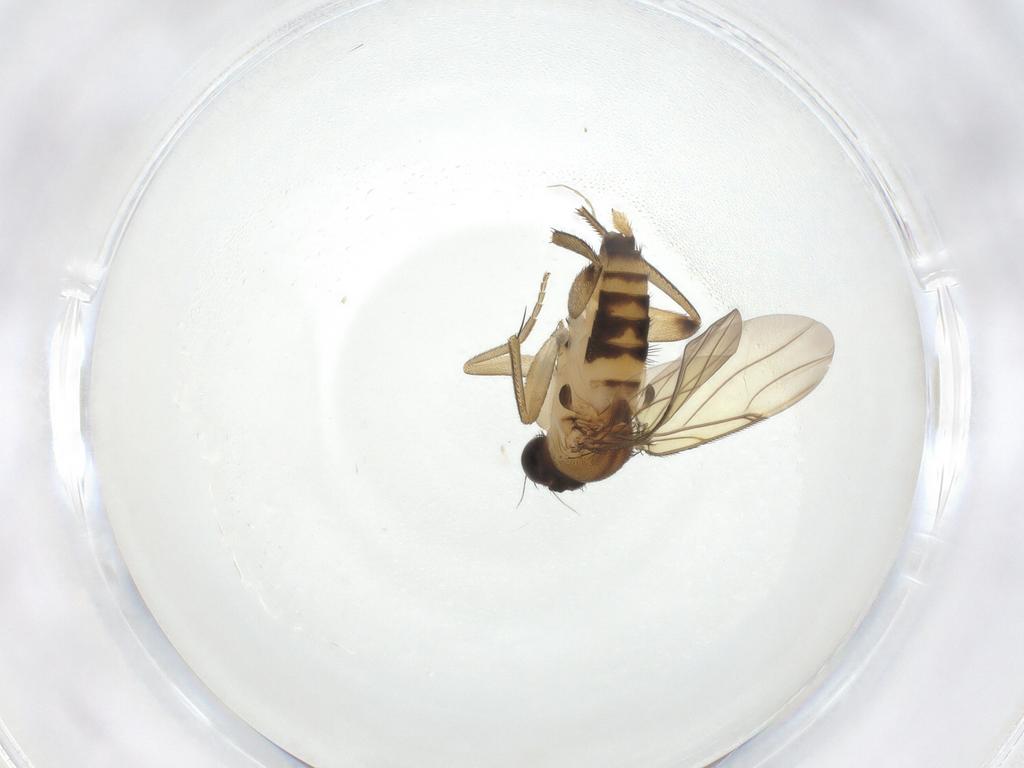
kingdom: Animalia
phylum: Arthropoda
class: Insecta
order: Diptera
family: Phoridae
